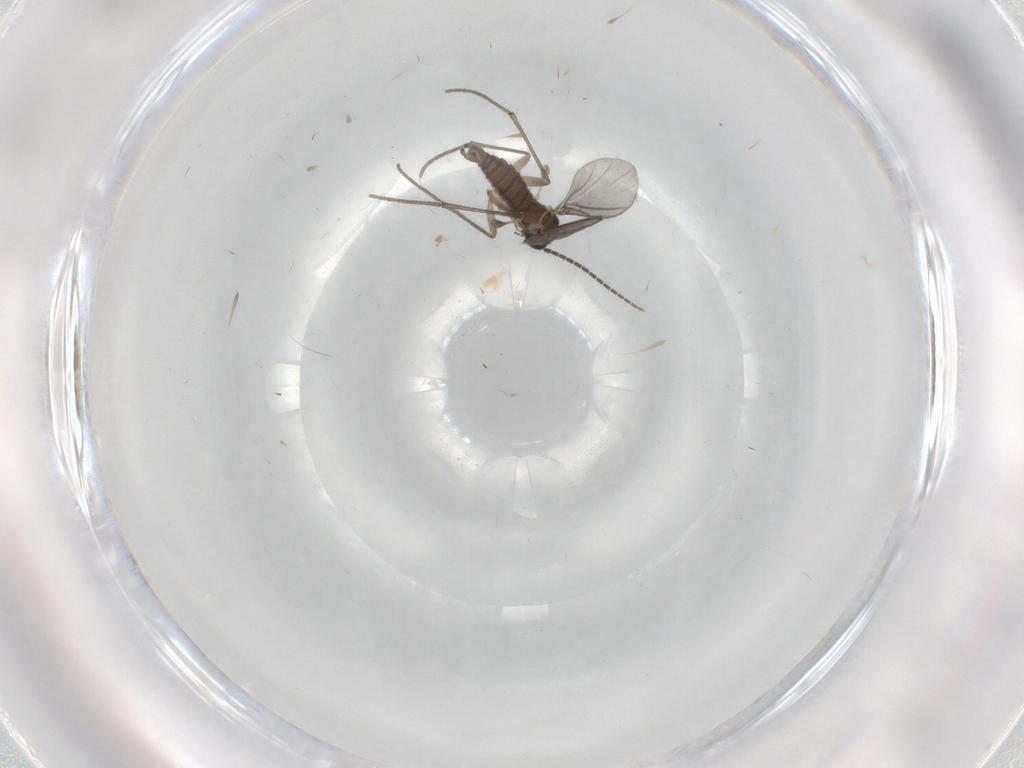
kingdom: Animalia
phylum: Arthropoda
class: Insecta
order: Diptera
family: Sciaridae
